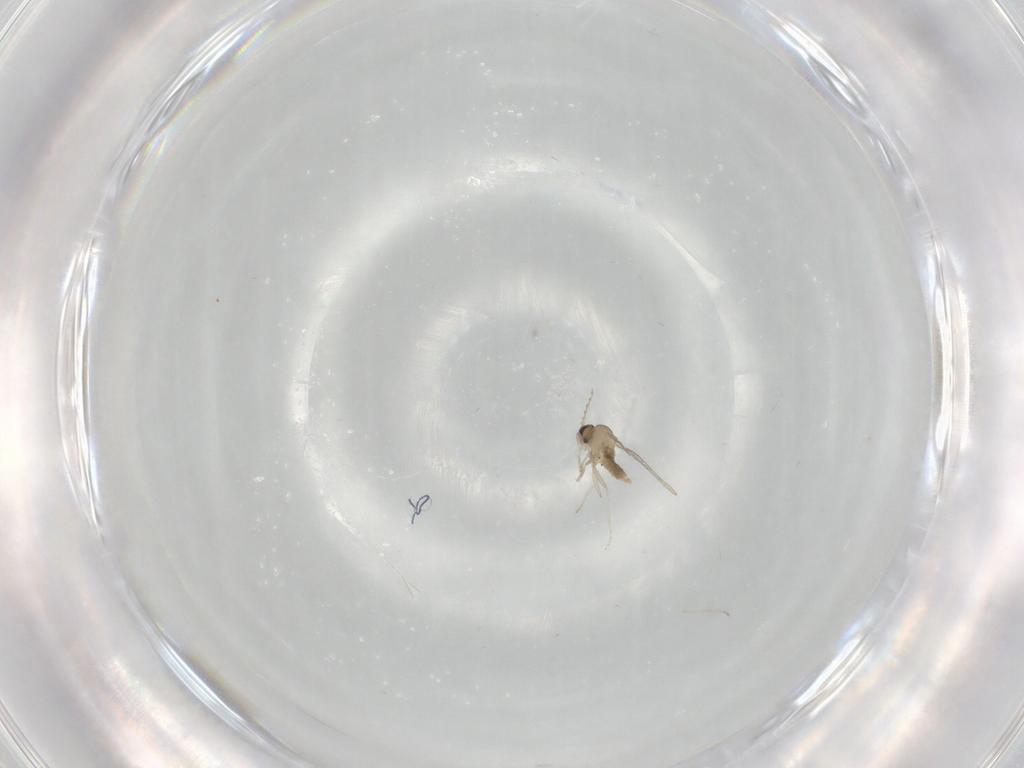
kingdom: Animalia
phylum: Arthropoda
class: Insecta
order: Diptera
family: Cecidomyiidae
